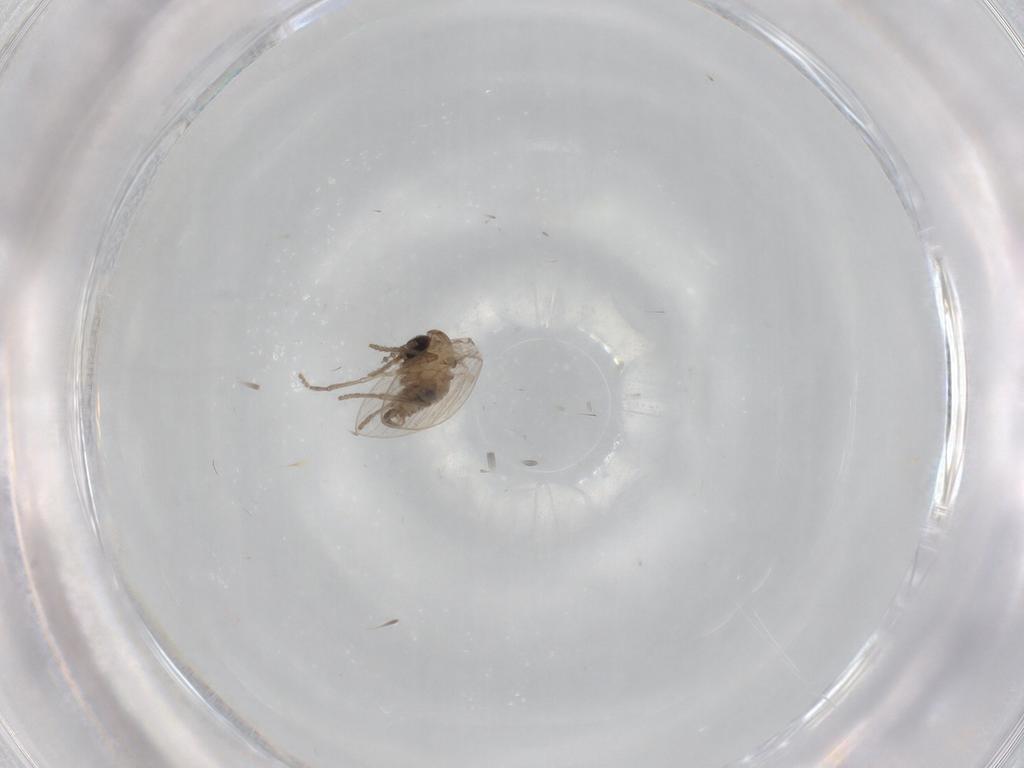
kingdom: Animalia
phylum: Arthropoda
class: Insecta
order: Diptera
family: Psychodidae
